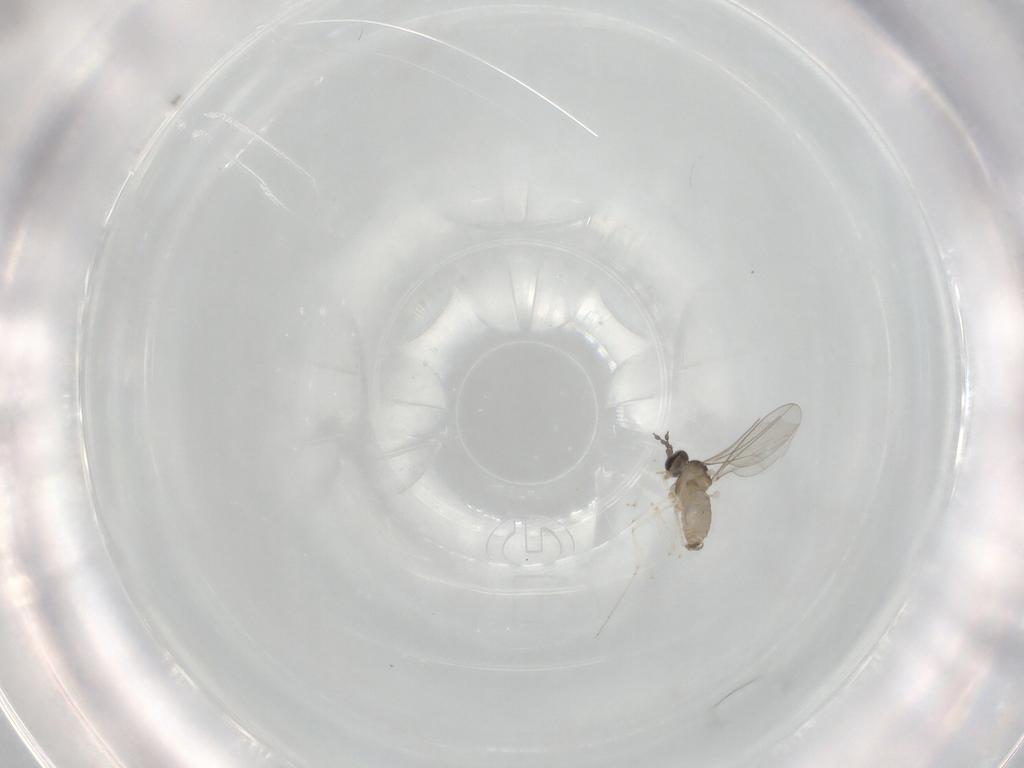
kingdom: Animalia
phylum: Arthropoda
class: Insecta
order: Diptera
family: Cecidomyiidae
